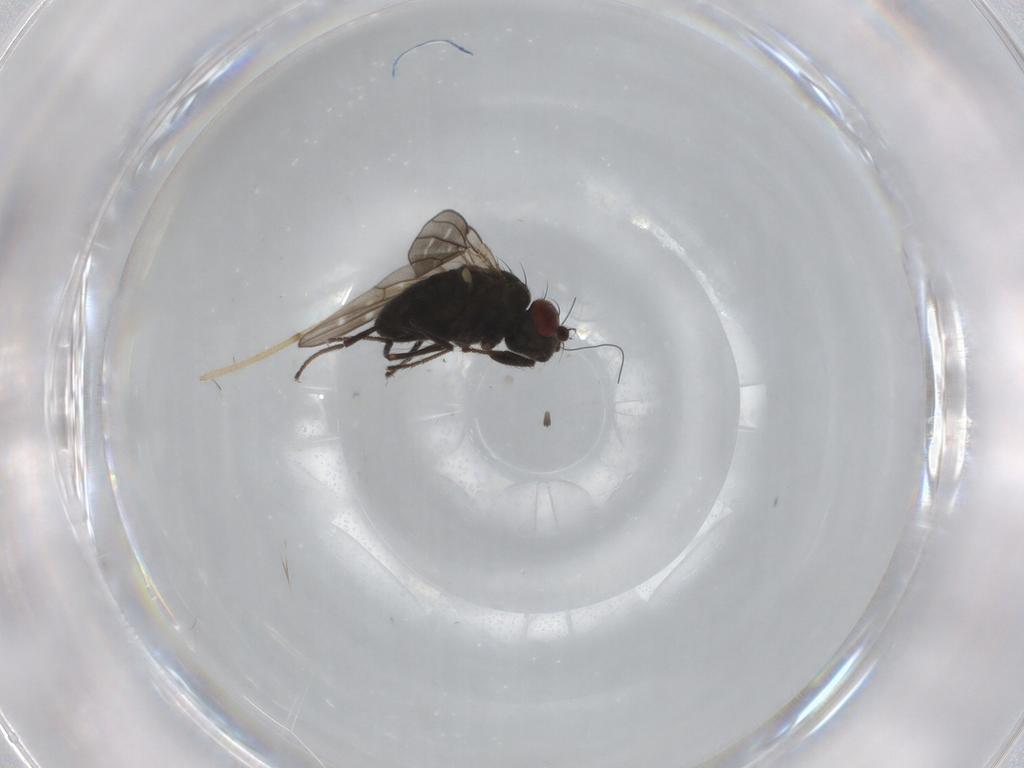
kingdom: Animalia
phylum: Arthropoda
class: Insecta
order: Diptera
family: Ephydridae
